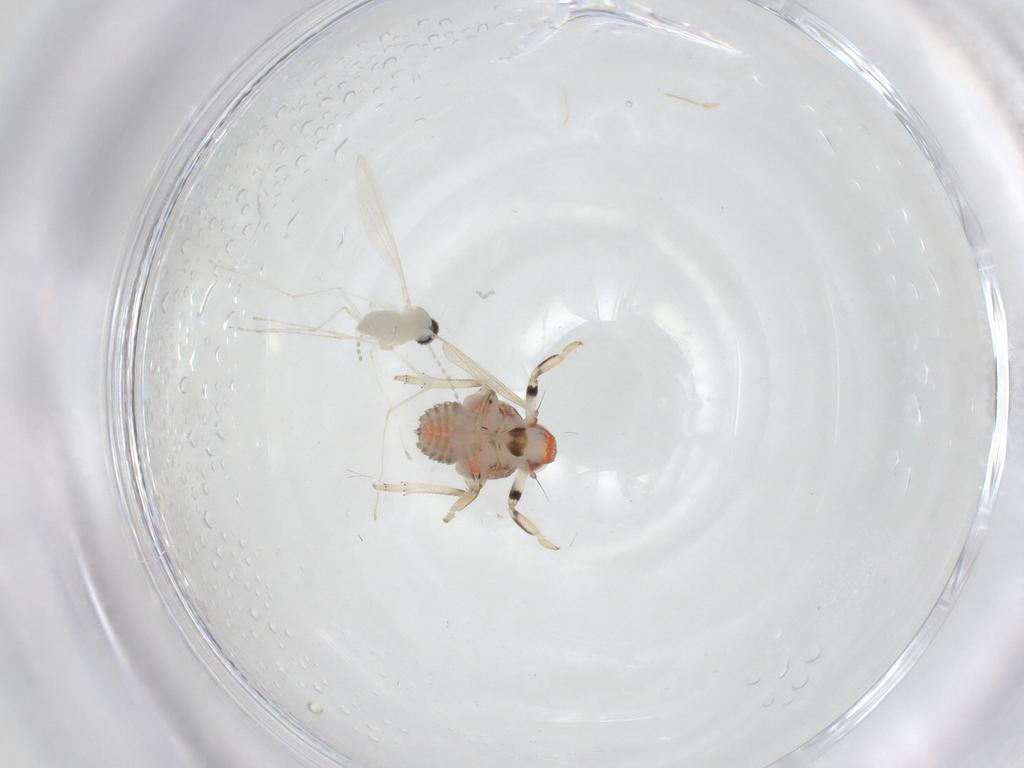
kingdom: Animalia
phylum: Arthropoda
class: Insecta
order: Diptera
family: Cecidomyiidae
